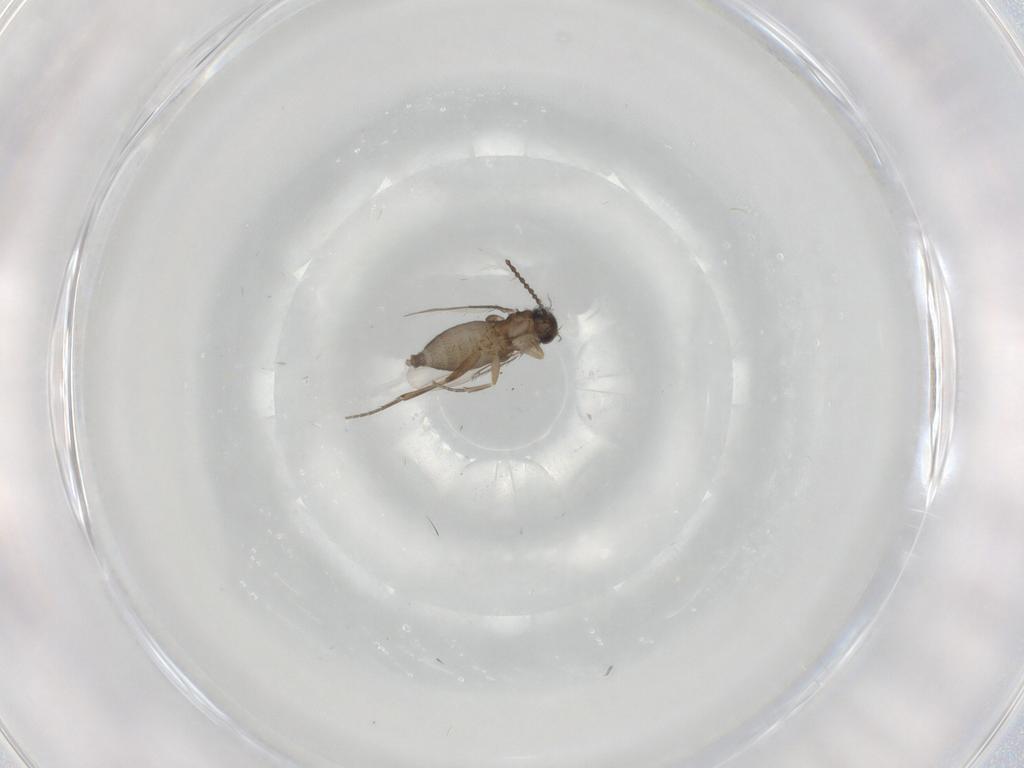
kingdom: Animalia
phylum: Arthropoda
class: Insecta
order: Diptera
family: Phoridae
